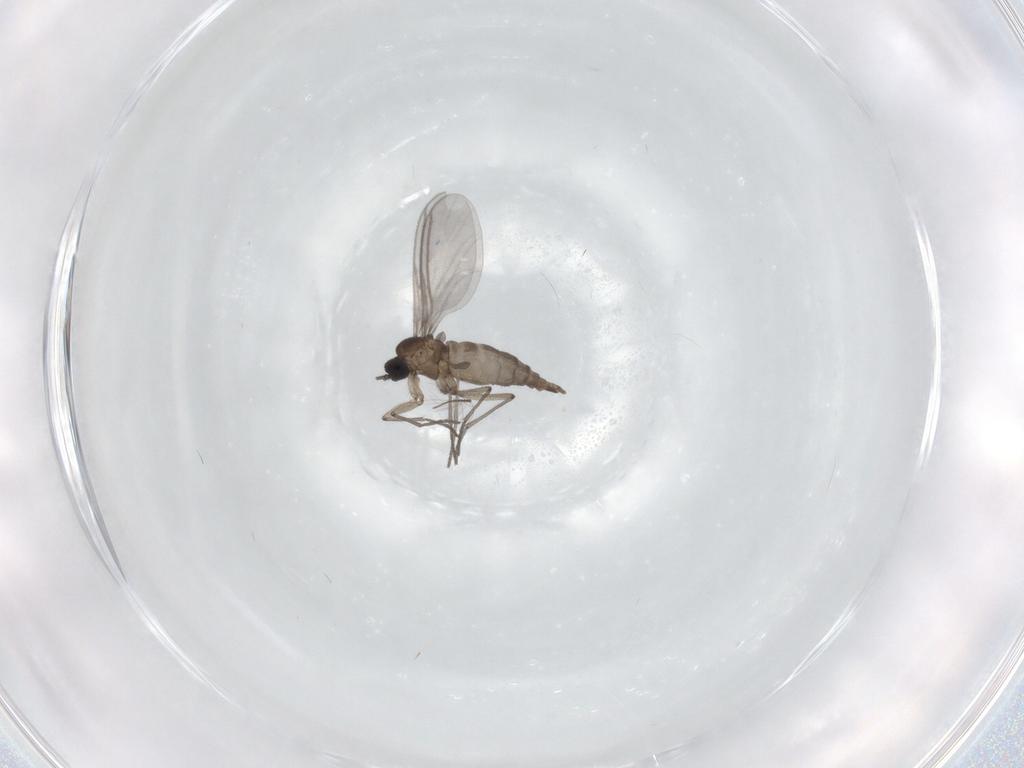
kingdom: Animalia
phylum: Arthropoda
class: Insecta
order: Diptera
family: Chironomidae
